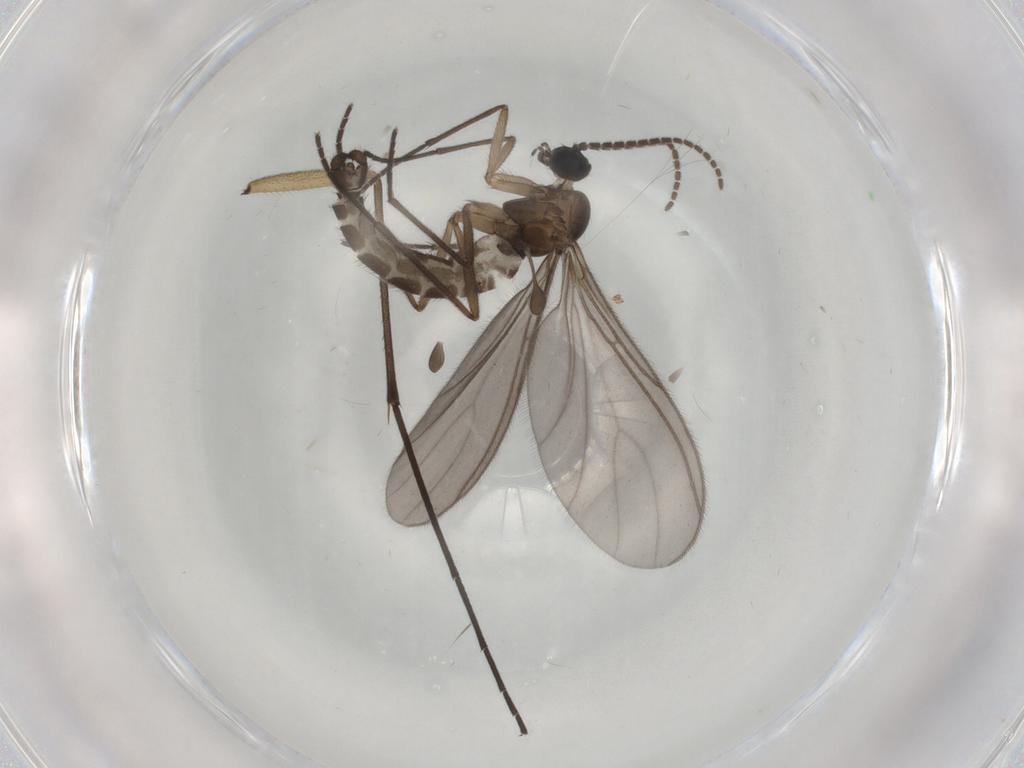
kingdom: Animalia
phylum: Arthropoda
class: Insecta
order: Diptera
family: Sciaridae
